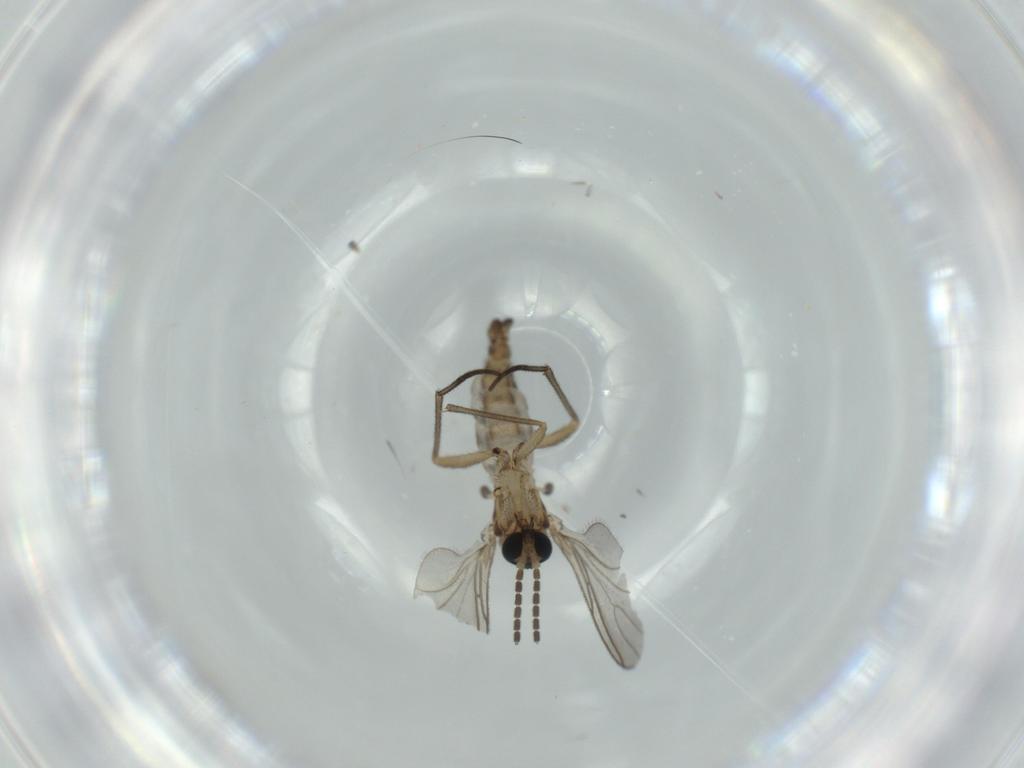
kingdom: Animalia
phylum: Arthropoda
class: Insecta
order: Diptera
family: Sciaridae
